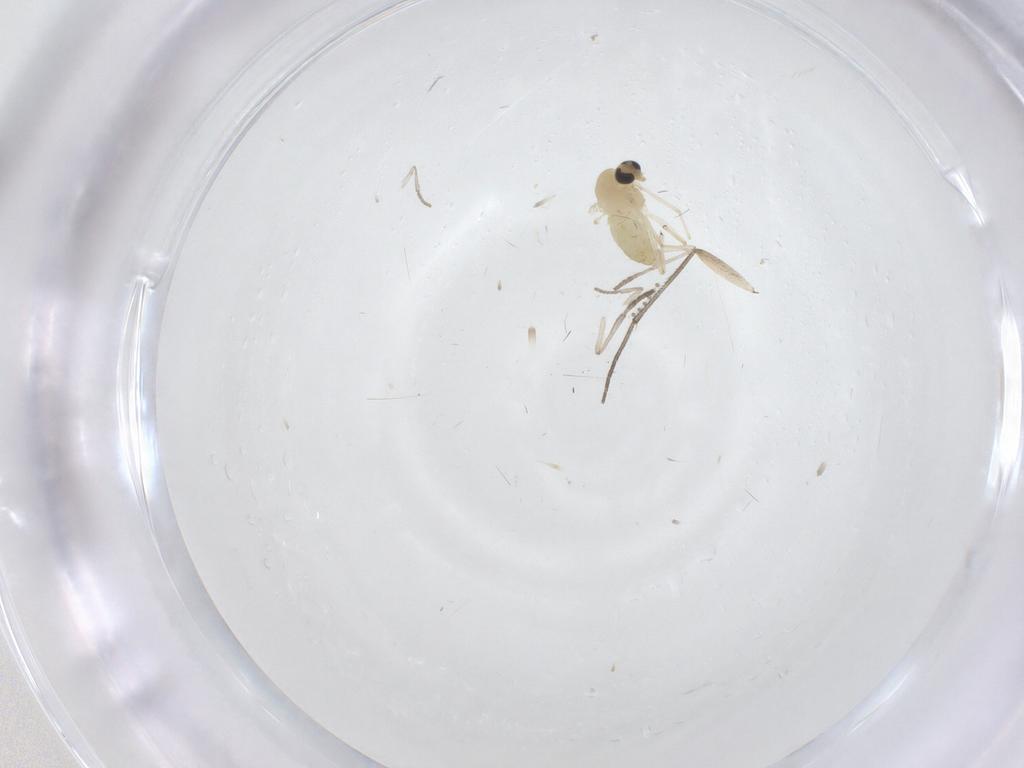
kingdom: Animalia
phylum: Arthropoda
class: Insecta
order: Diptera
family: Chironomidae
